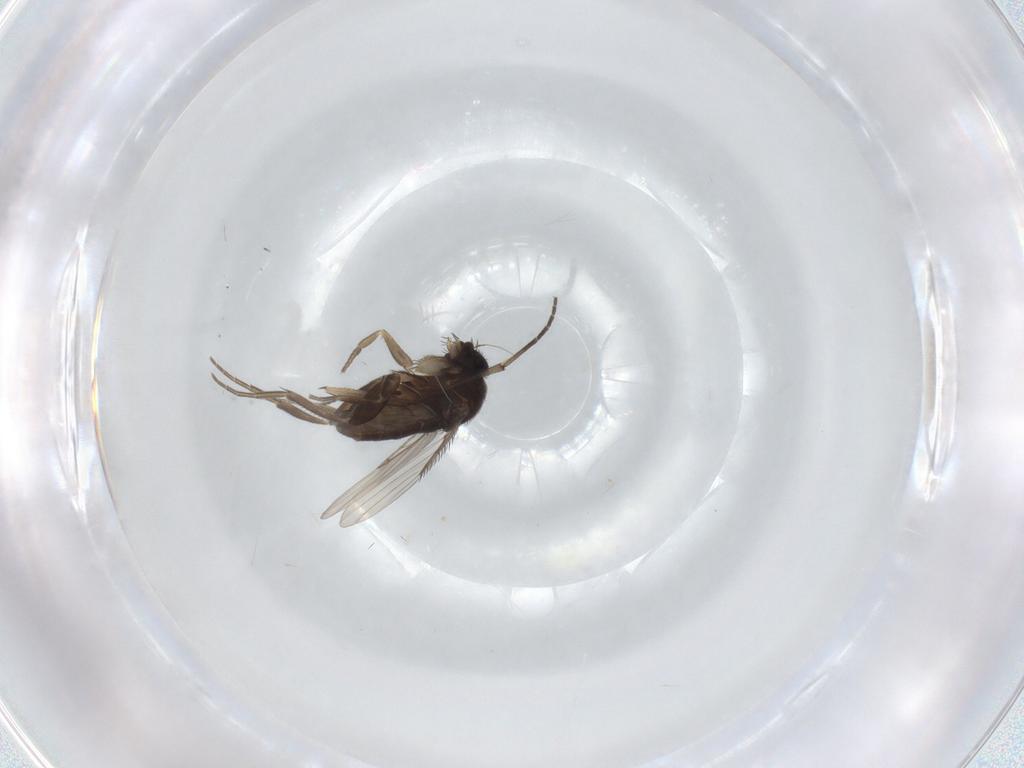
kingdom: Animalia
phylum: Arthropoda
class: Insecta
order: Diptera
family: Phoridae
